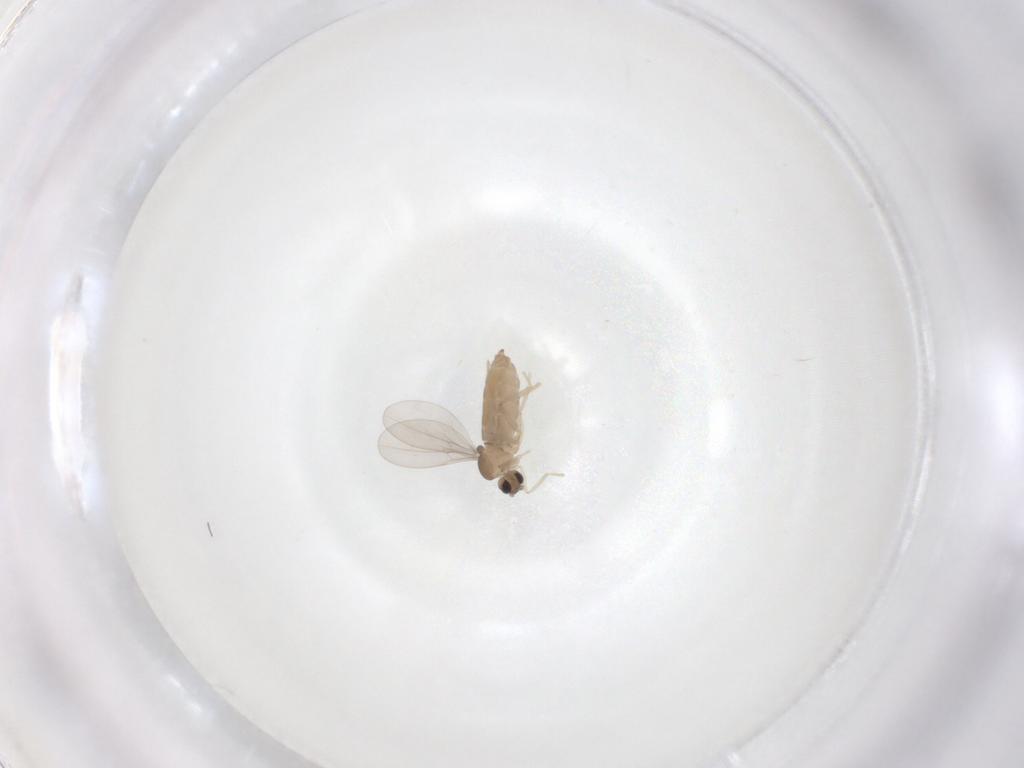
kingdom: Animalia
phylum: Arthropoda
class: Insecta
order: Diptera
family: Cecidomyiidae
